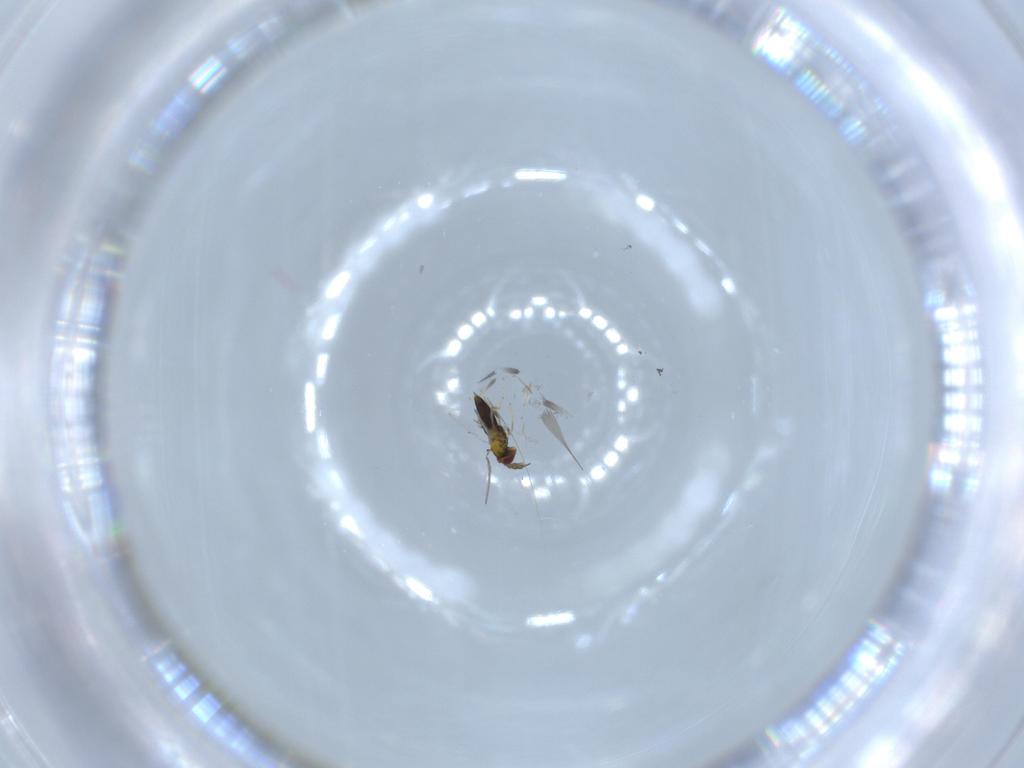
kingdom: Animalia
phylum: Arthropoda
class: Insecta
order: Hymenoptera
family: Trichogrammatidae
